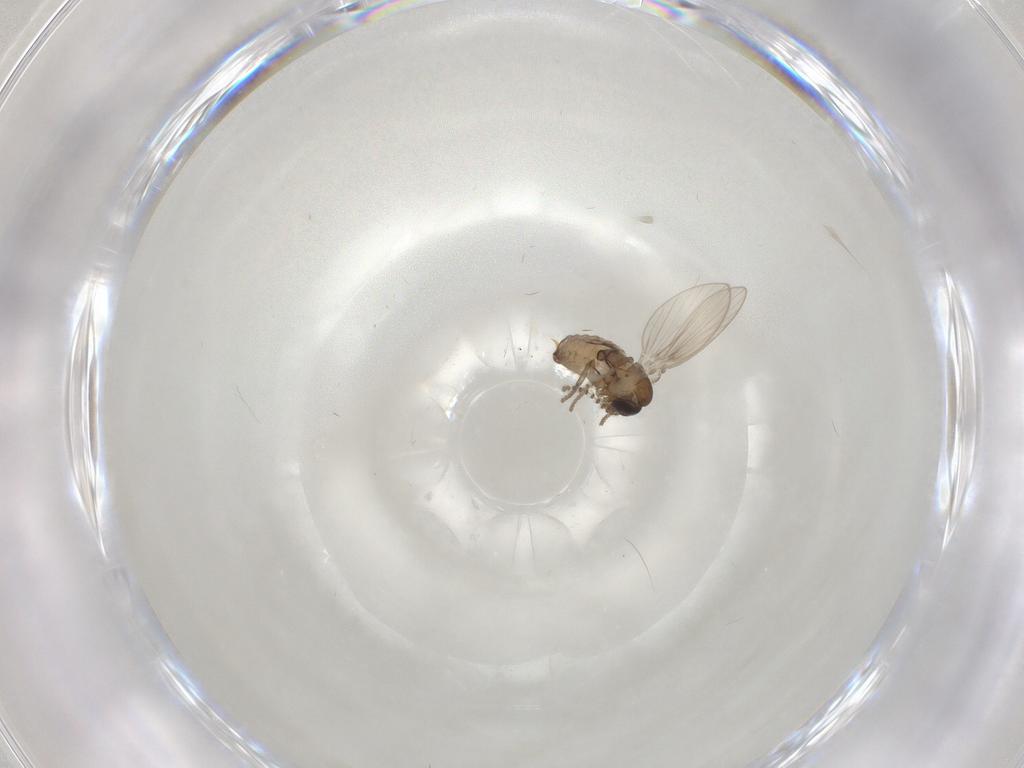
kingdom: Animalia
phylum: Arthropoda
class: Insecta
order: Diptera
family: Psychodidae
